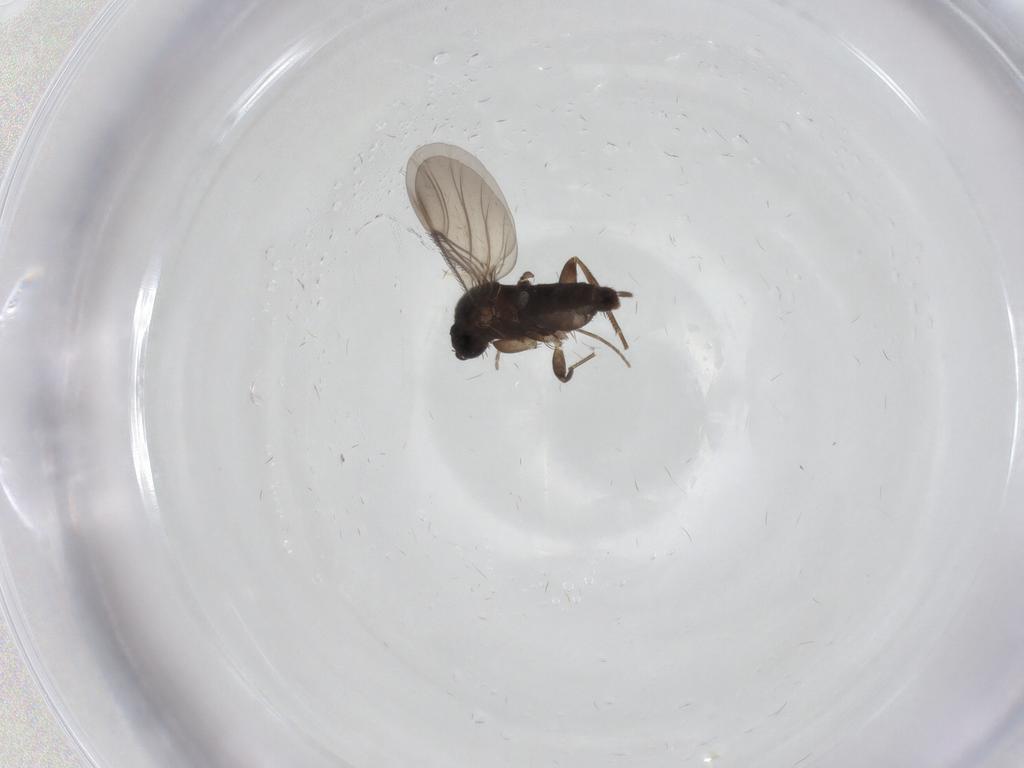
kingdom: Animalia
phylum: Arthropoda
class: Insecta
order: Diptera
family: Phoridae
